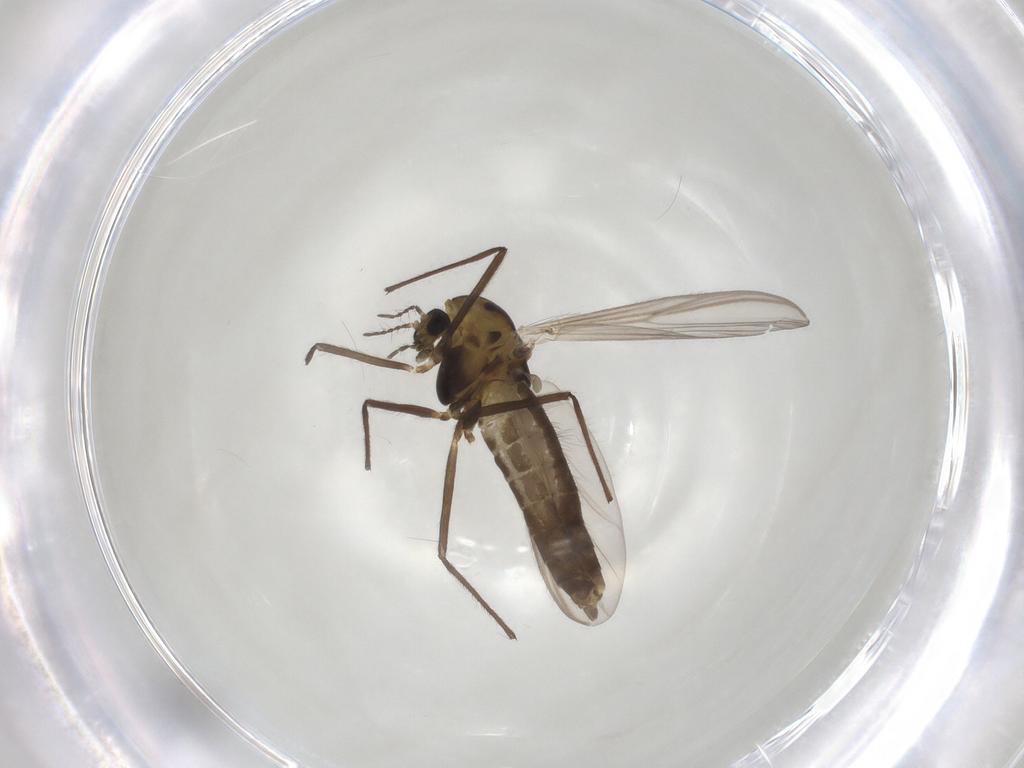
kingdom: Animalia
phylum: Arthropoda
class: Insecta
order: Diptera
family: Chironomidae
